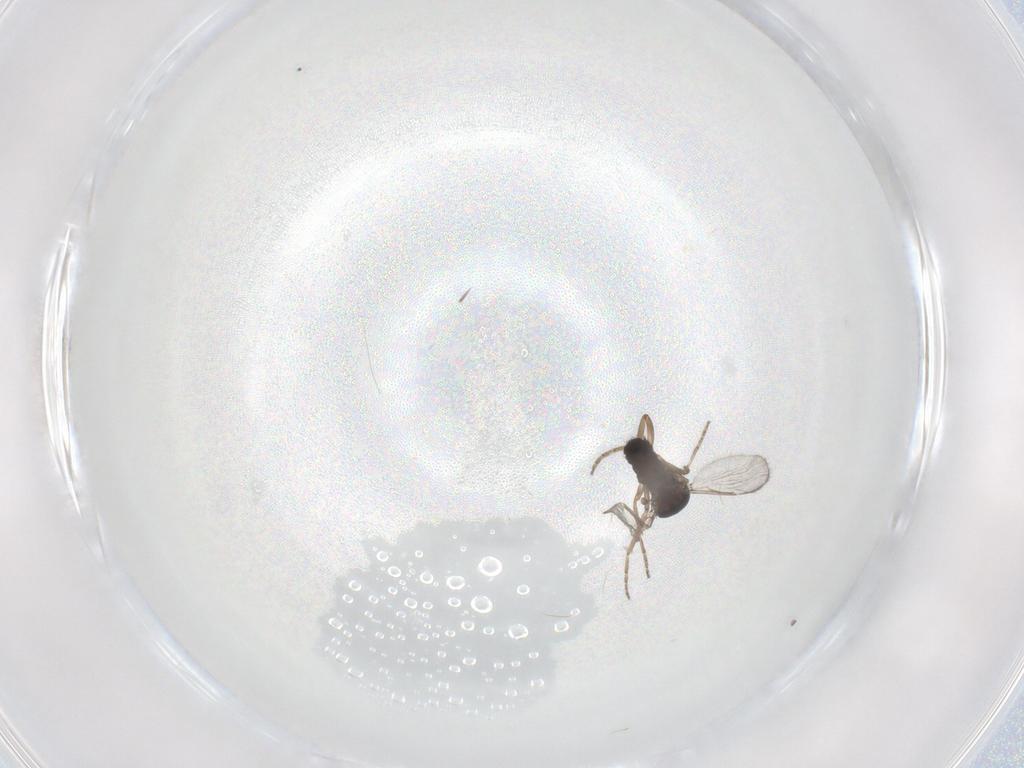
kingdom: Animalia
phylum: Arthropoda
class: Insecta
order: Diptera
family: Ceratopogonidae
